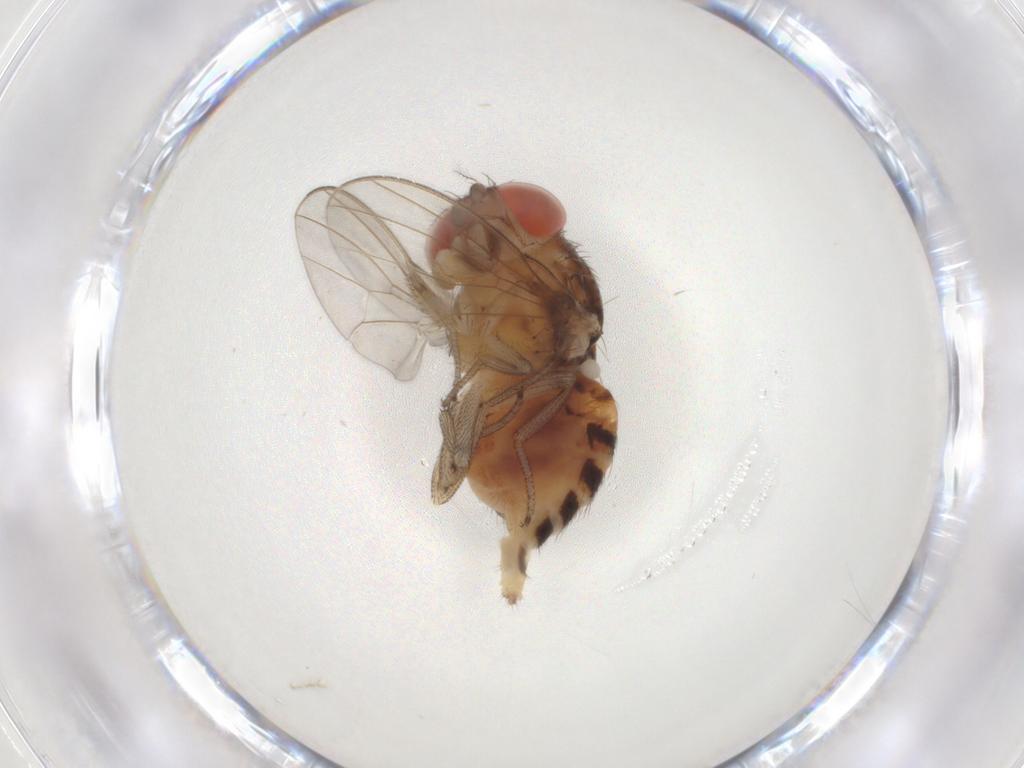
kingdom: Animalia
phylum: Arthropoda
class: Insecta
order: Diptera
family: Drosophilidae
